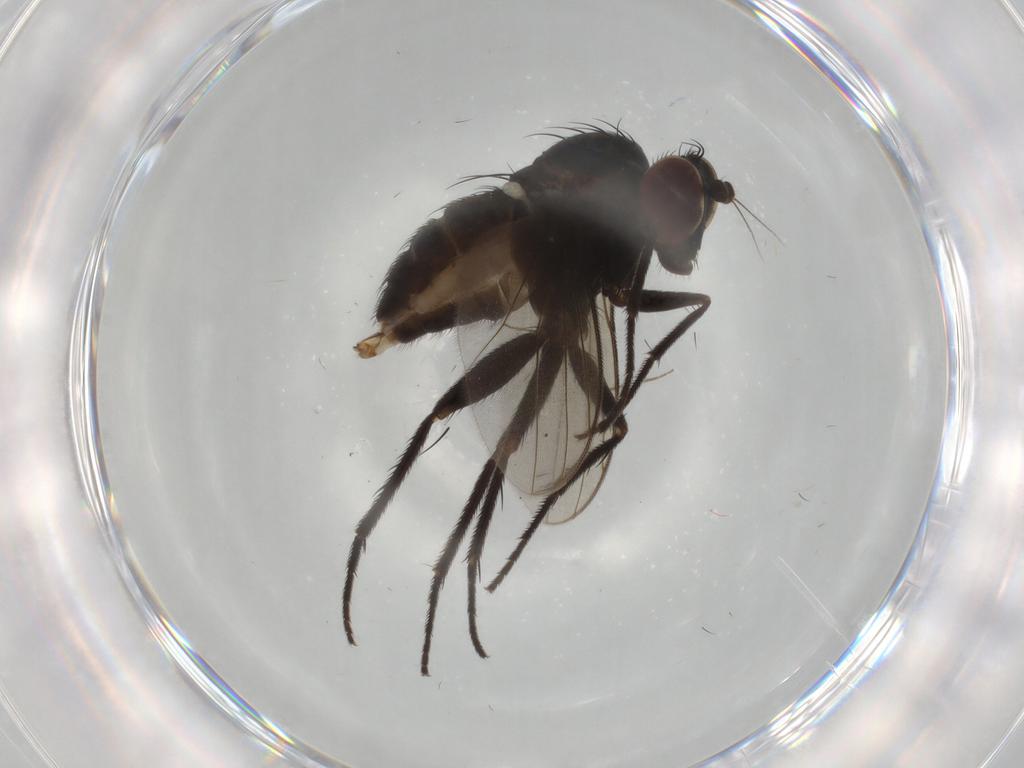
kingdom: Animalia
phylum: Arthropoda
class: Insecta
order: Diptera
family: Dolichopodidae
